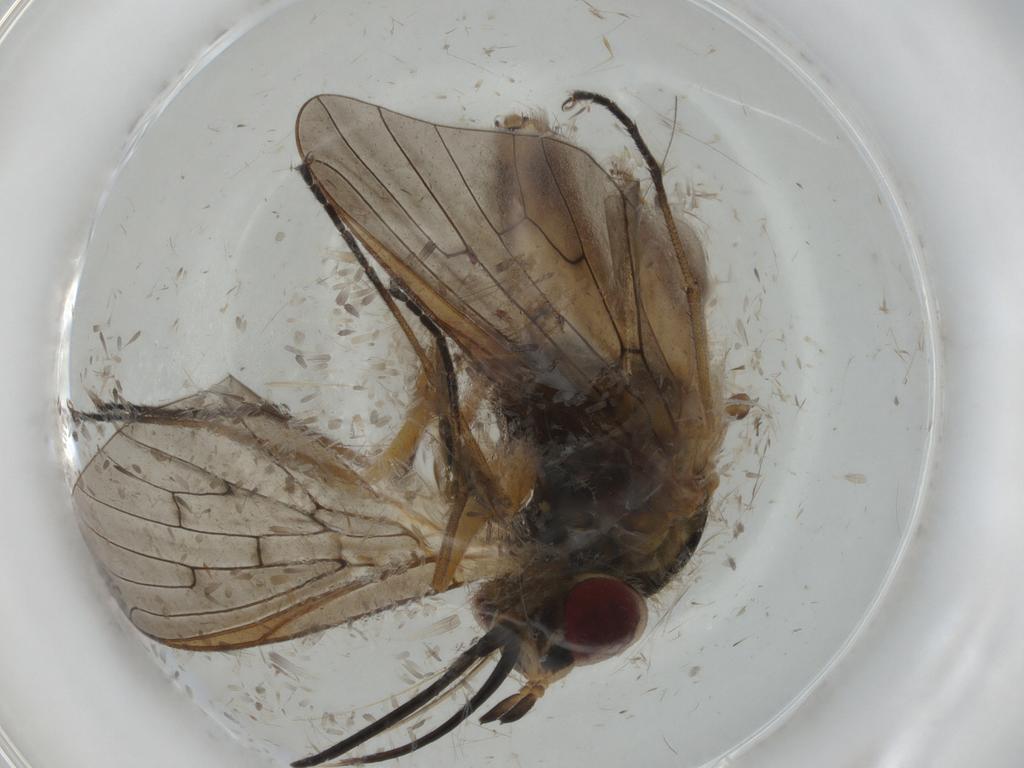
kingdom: Animalia
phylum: Arthropoda
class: Insecta
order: Diptera
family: Bombyliidae
